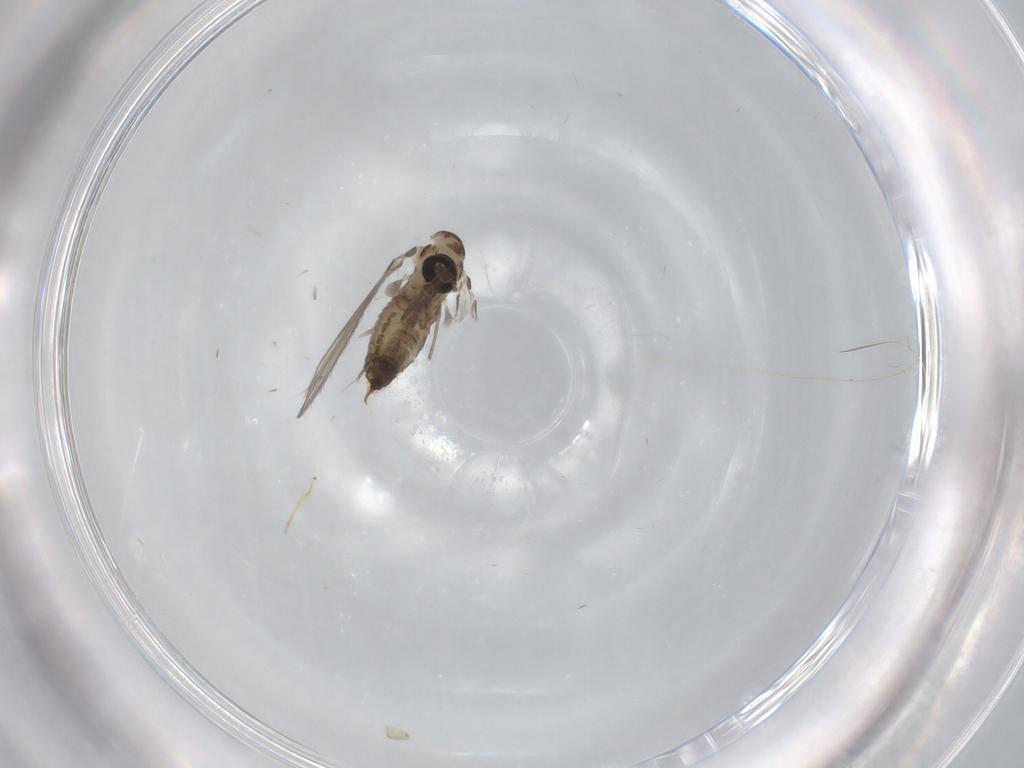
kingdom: Animalia
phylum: Arthropoda
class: Insecta
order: Diptera
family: Psychodidae
